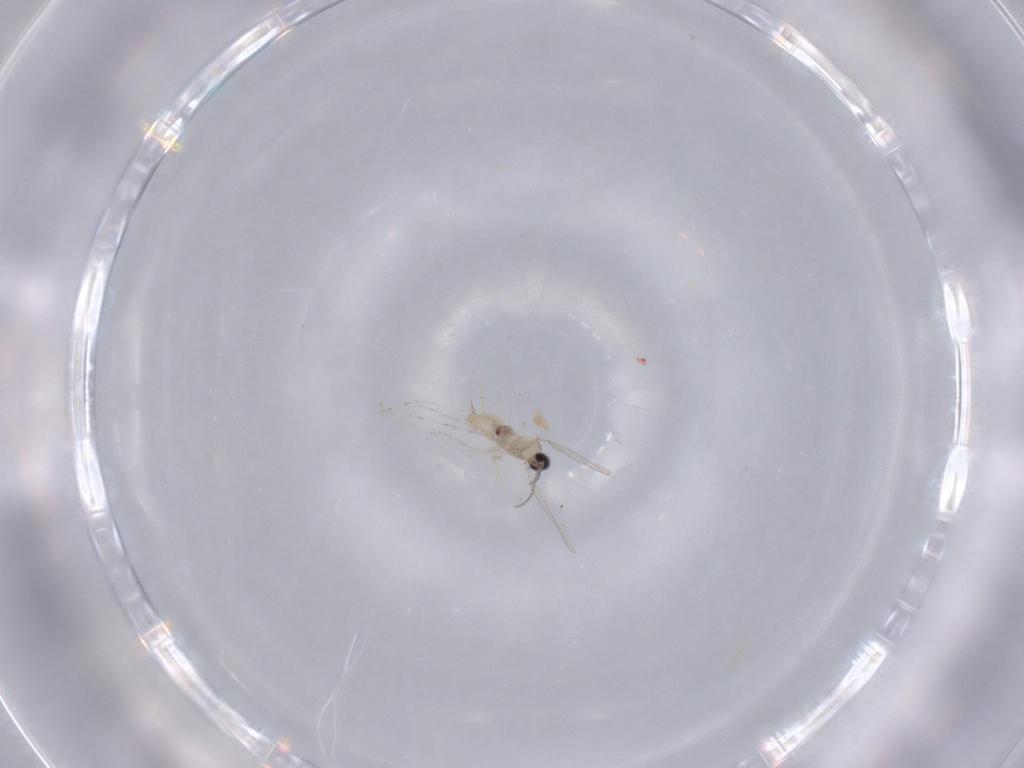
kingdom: Animalia
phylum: Arthropoda
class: Insecta
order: Diptera
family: Cecidomyiidae
